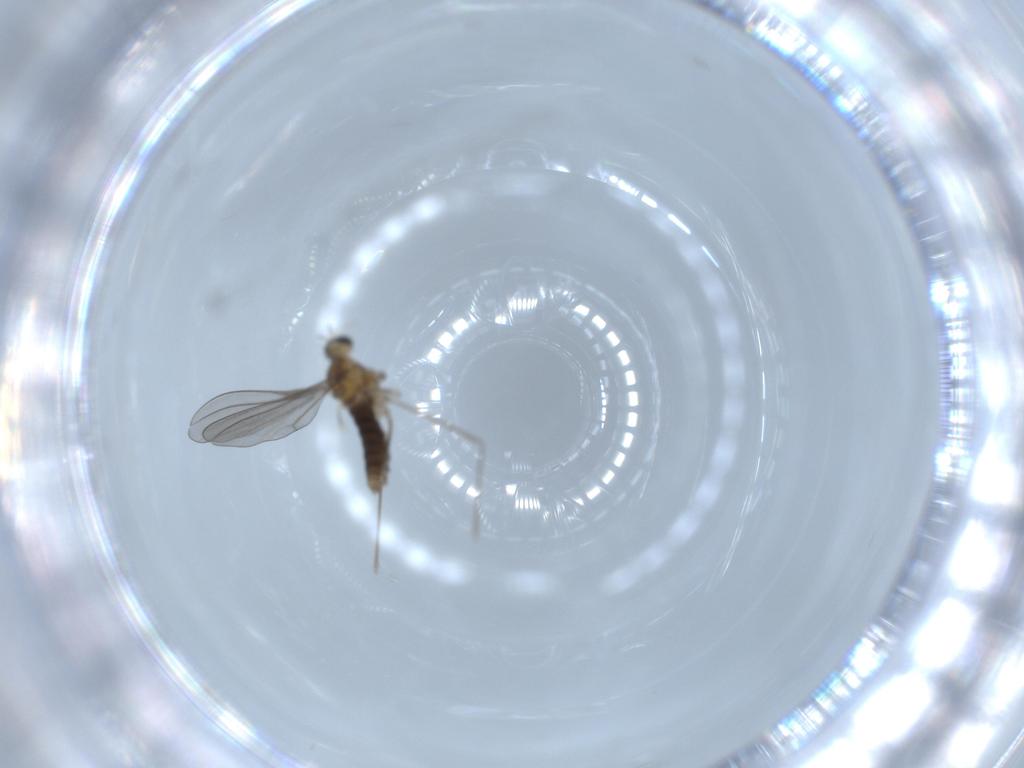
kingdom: Animalia
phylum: Arthropoda
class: Insecta
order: Diptera
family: Cecidomyiidae
